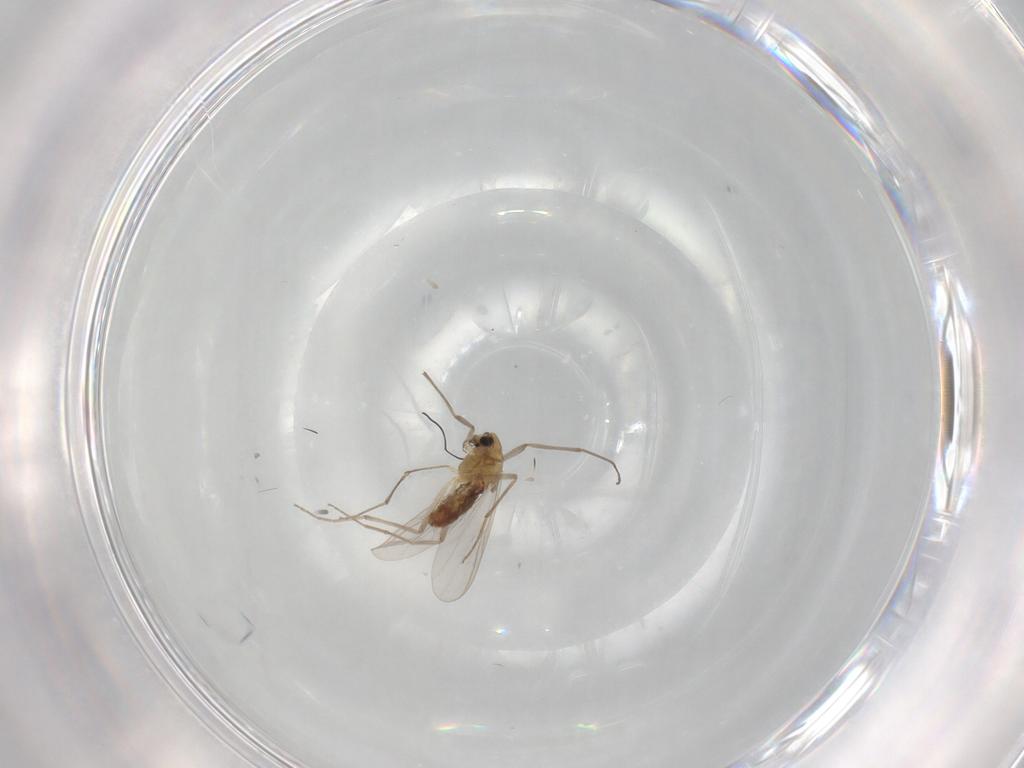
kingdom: Animalia
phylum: Arthropoda
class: Insecta
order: Diptera
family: Chironomidae
